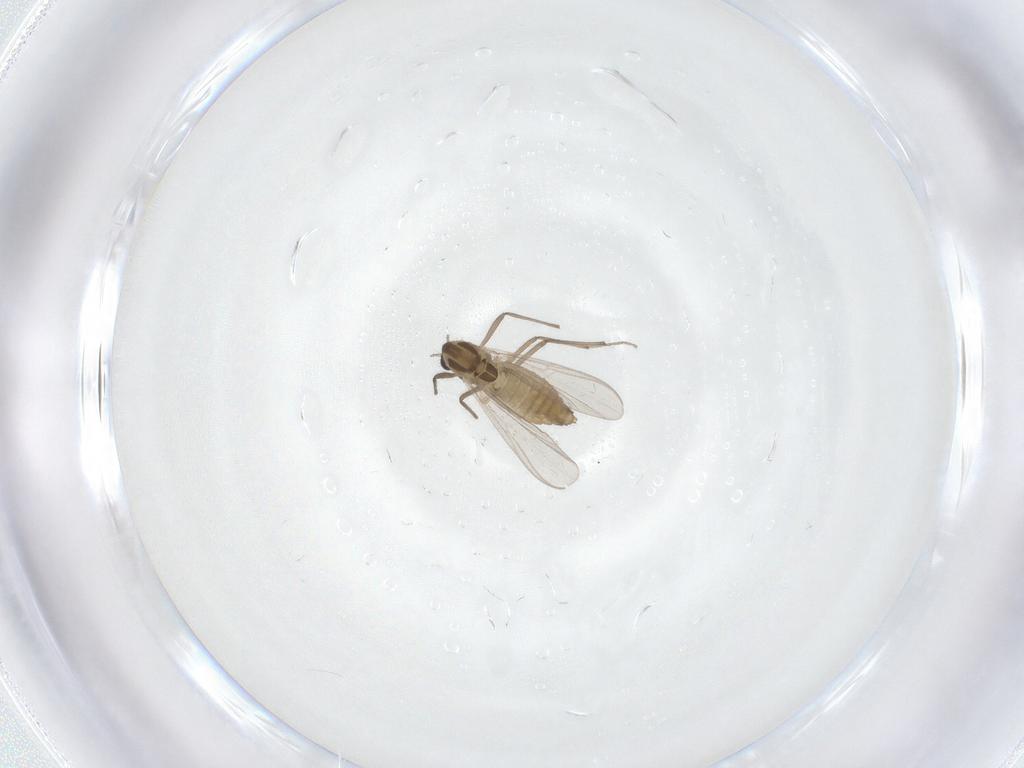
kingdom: Animalia
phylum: Arthropoda
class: Insecta
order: Diptera
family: Chironomidae
